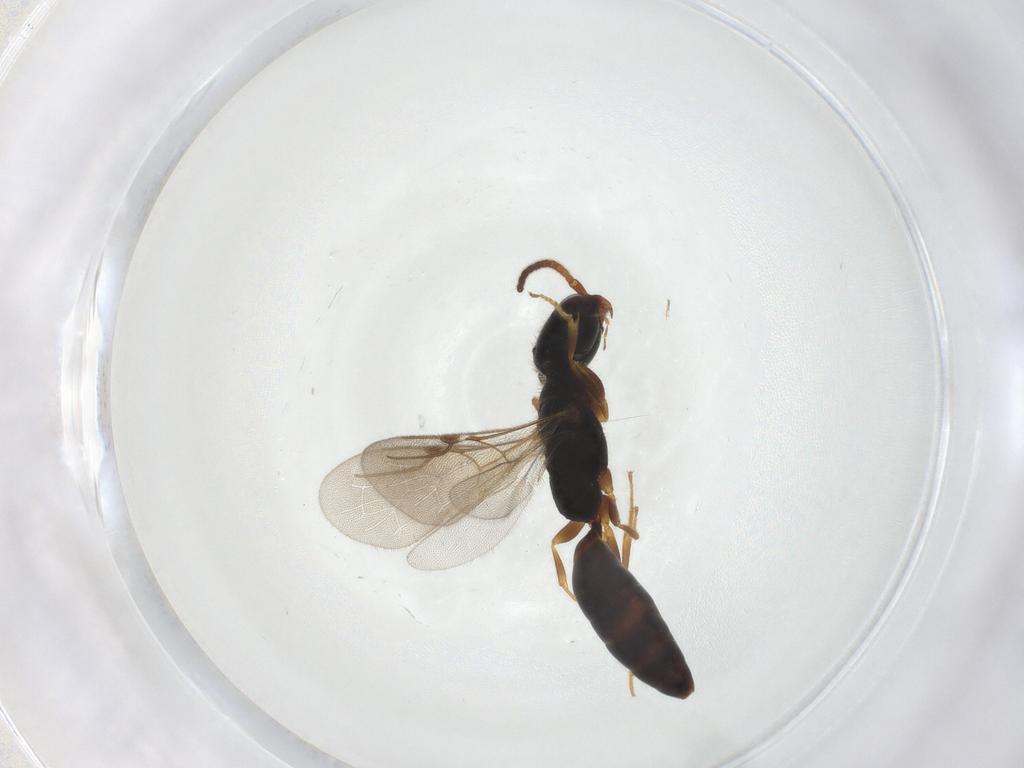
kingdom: Animalia
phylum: Arthropoda
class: Insecta
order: Hymenoptera
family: Bethylidae
